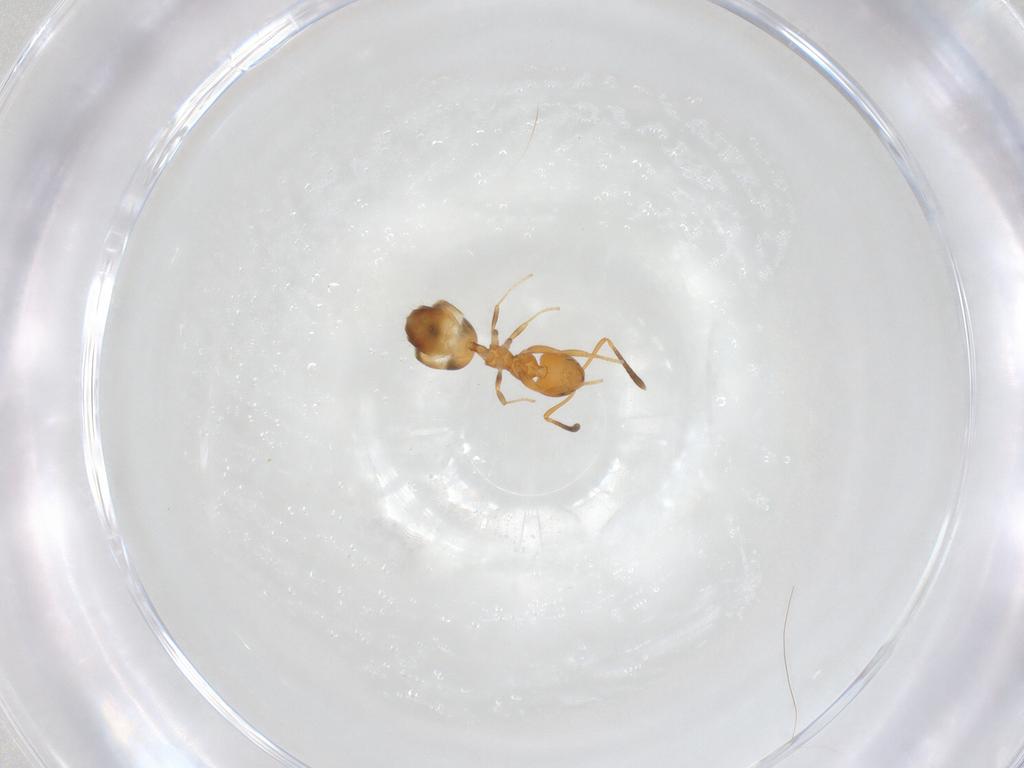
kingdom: Animalia
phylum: Arthropoda
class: Insecta
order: Hymenoptera
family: Formicidae
